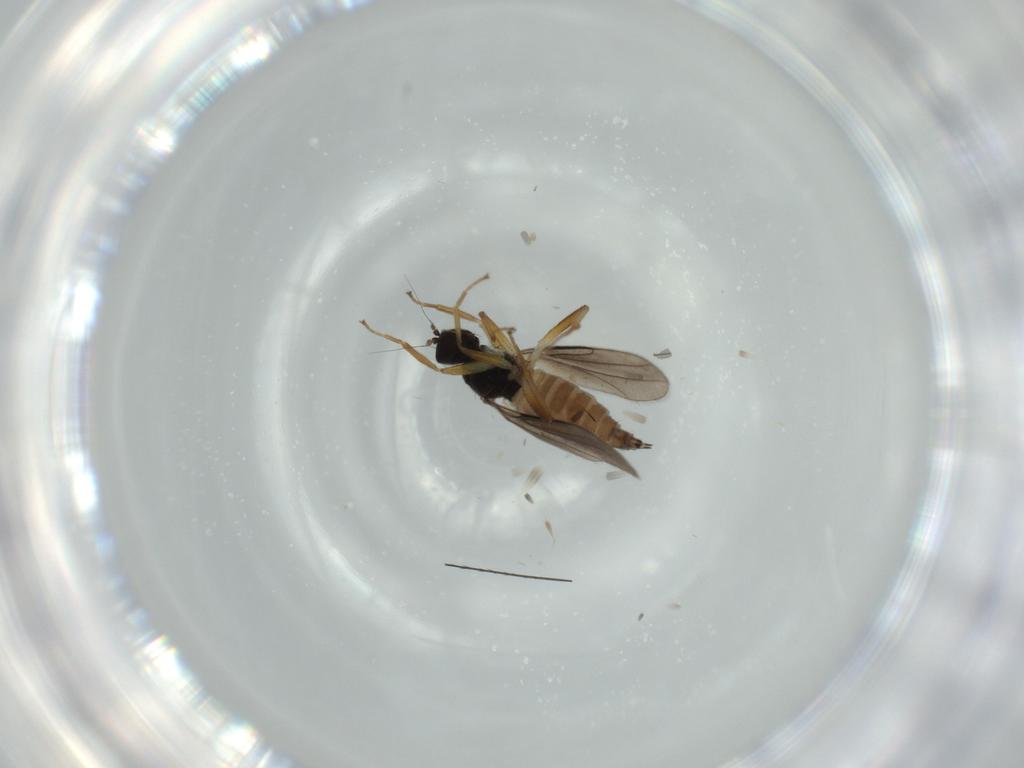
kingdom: Animalia
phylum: Arthropoda
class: Insecta
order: Diptera
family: Hybotidae
